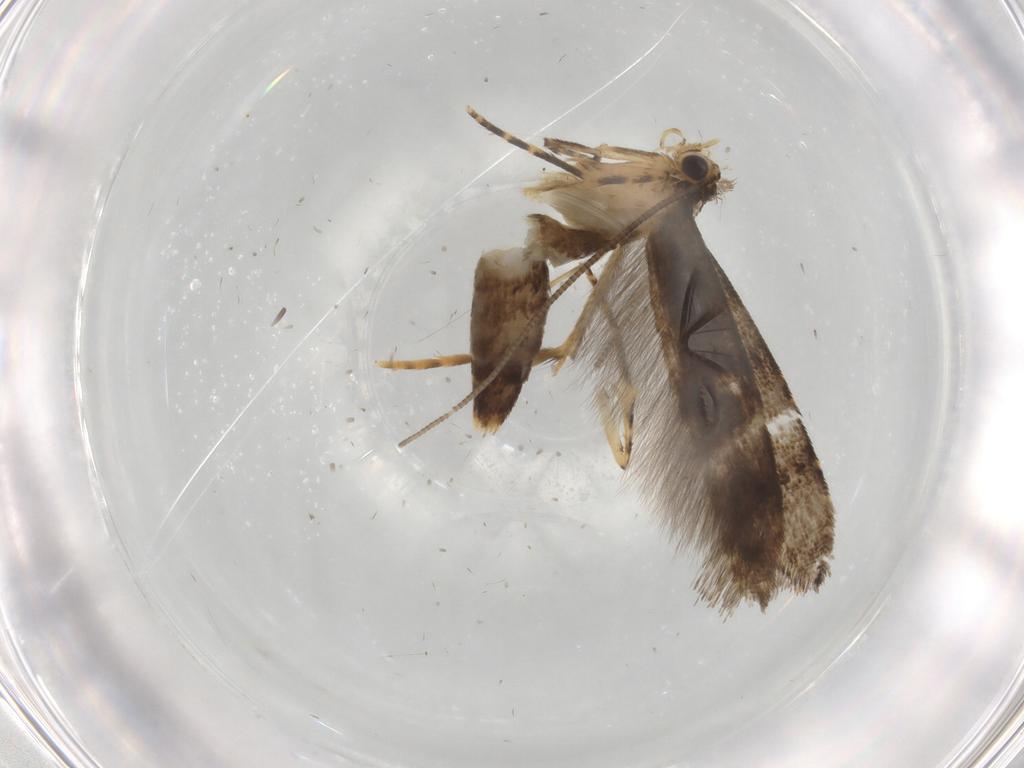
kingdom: Animalia
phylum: Arthropoda
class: Insecta
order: Lepidoptera
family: Tineidae
